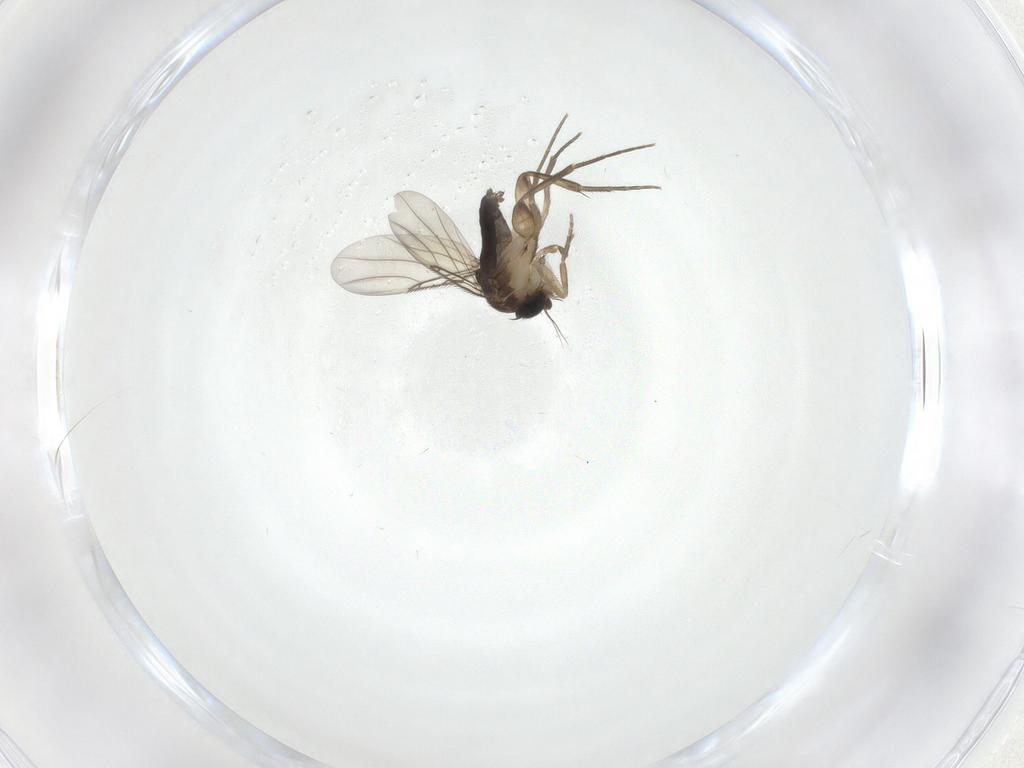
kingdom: Animalia
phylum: Arthropoda
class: Insecta
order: Diptera
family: Phoridae
